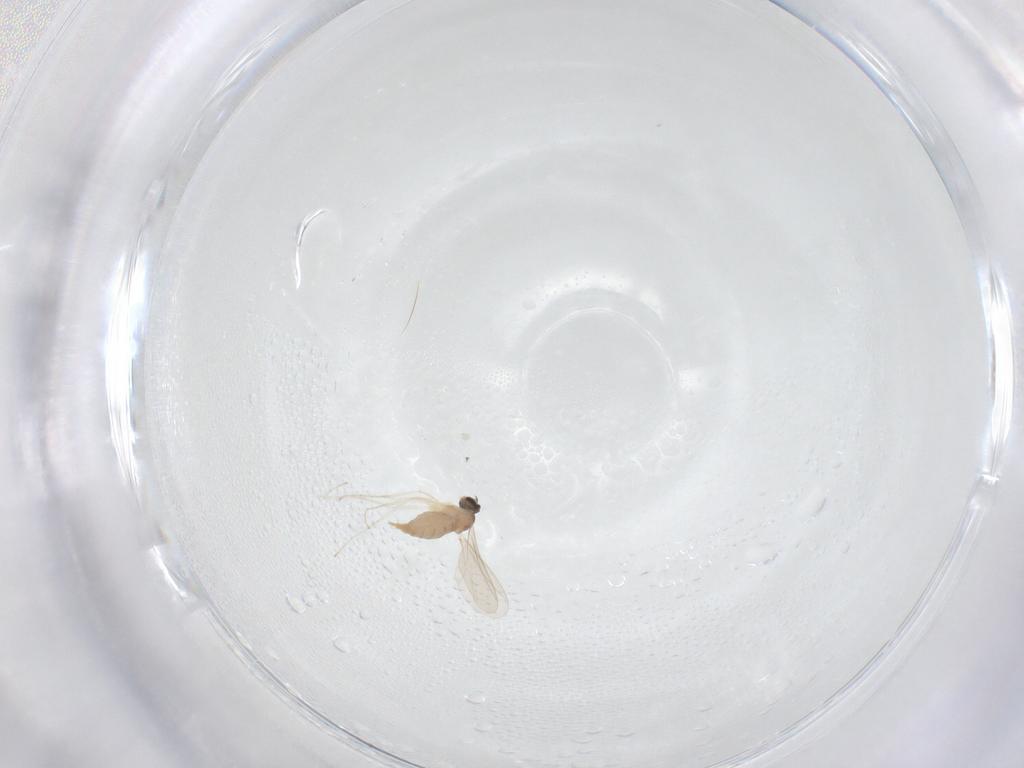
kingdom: Animalia
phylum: Arthropoda
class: Insecta
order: Diptera
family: Cecidomyiidae
